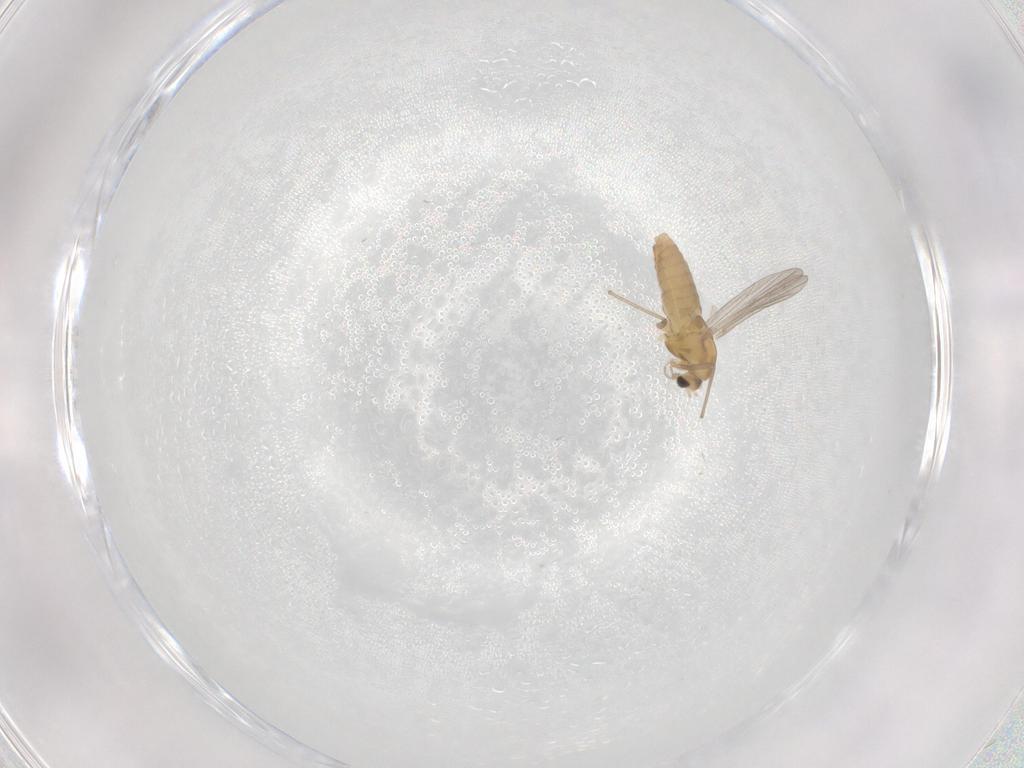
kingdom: Animalia
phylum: Arthropoda
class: Insecta
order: Diptera
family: Chironomidae
